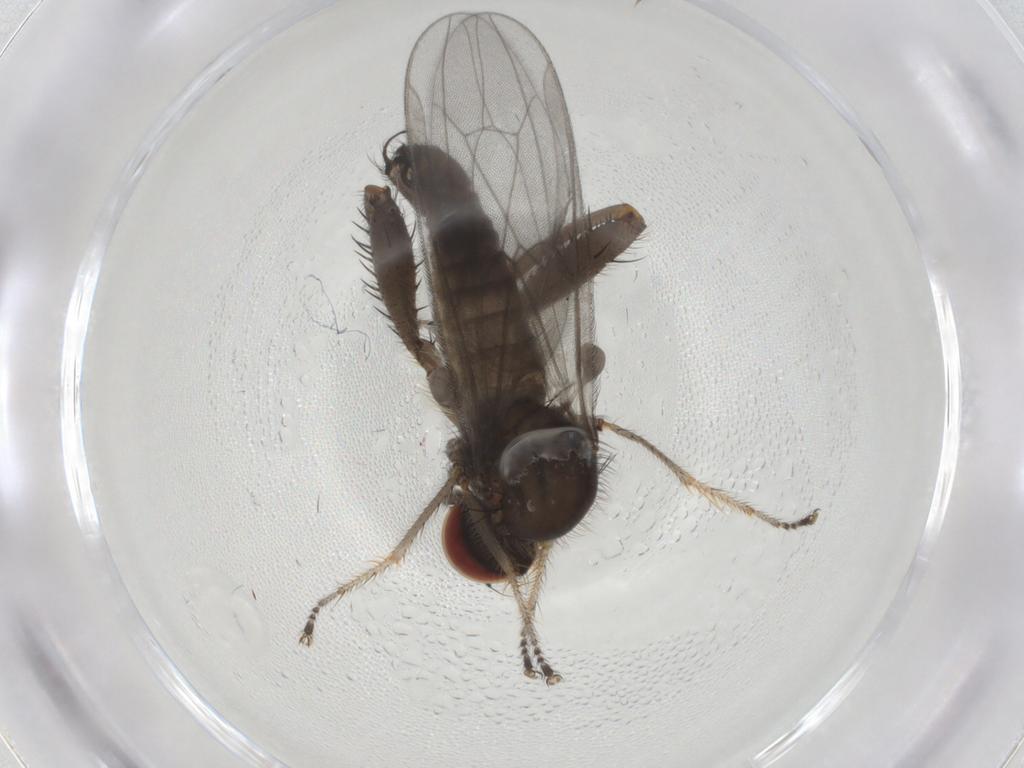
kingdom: Animalia
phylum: Arthropoda
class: Insecta
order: Diptera
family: Hybotidae
